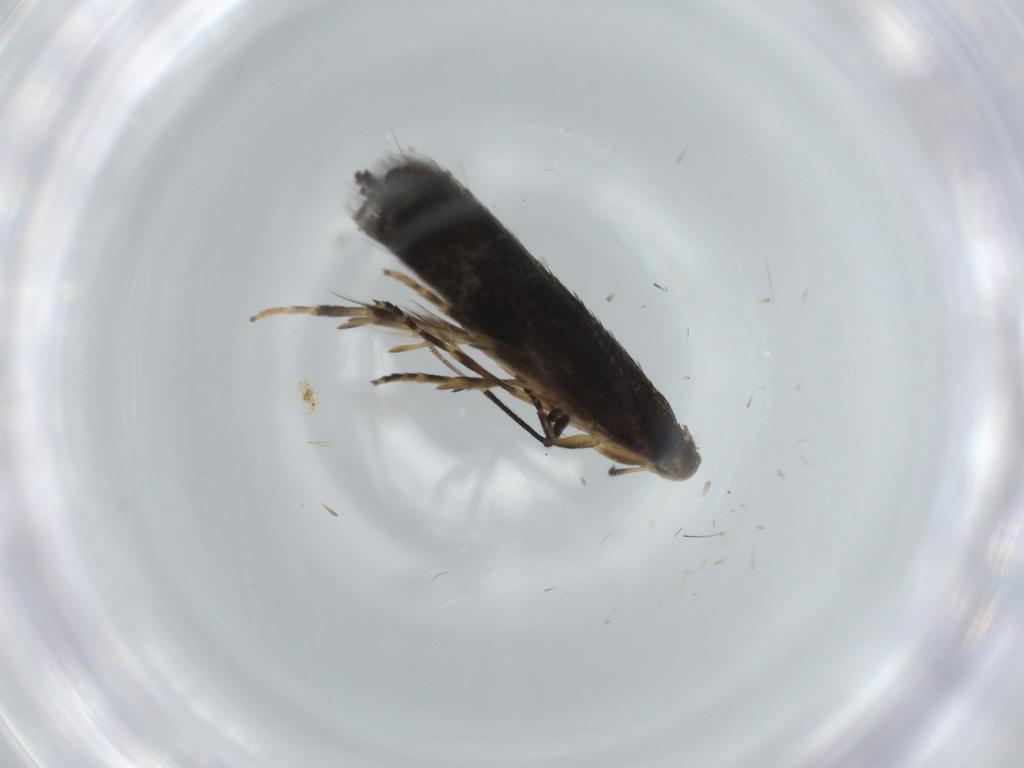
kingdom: Animalia
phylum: Arthropoda
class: Insecta
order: Lepidoptera
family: Gelechiidae
